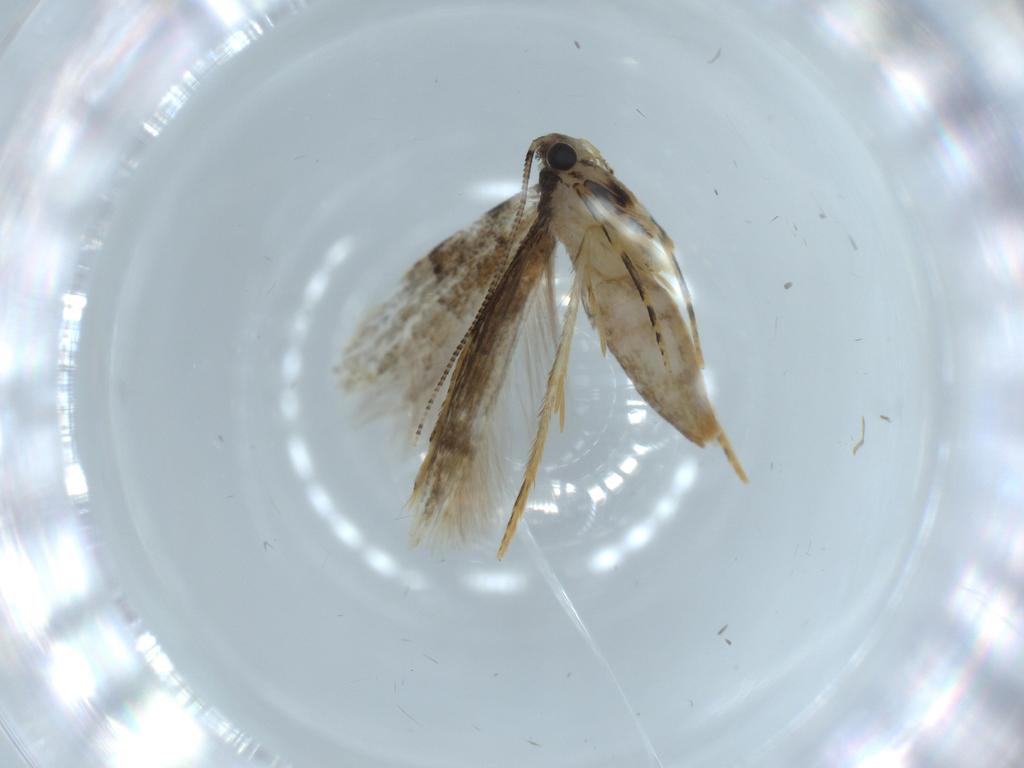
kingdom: Animalia
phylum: Arthropoda
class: Insecta
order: Lepidoptera
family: Tineidae
